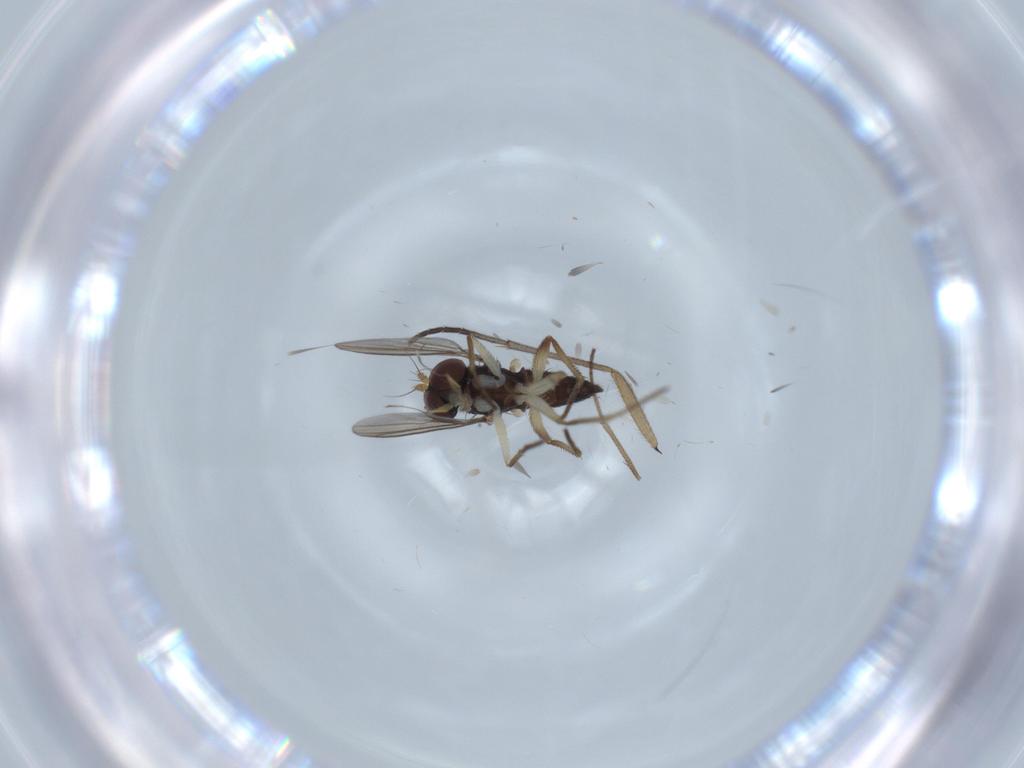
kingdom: Animalia
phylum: Arthropoda
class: Insecta
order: Diptera
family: Dolichopodidae
